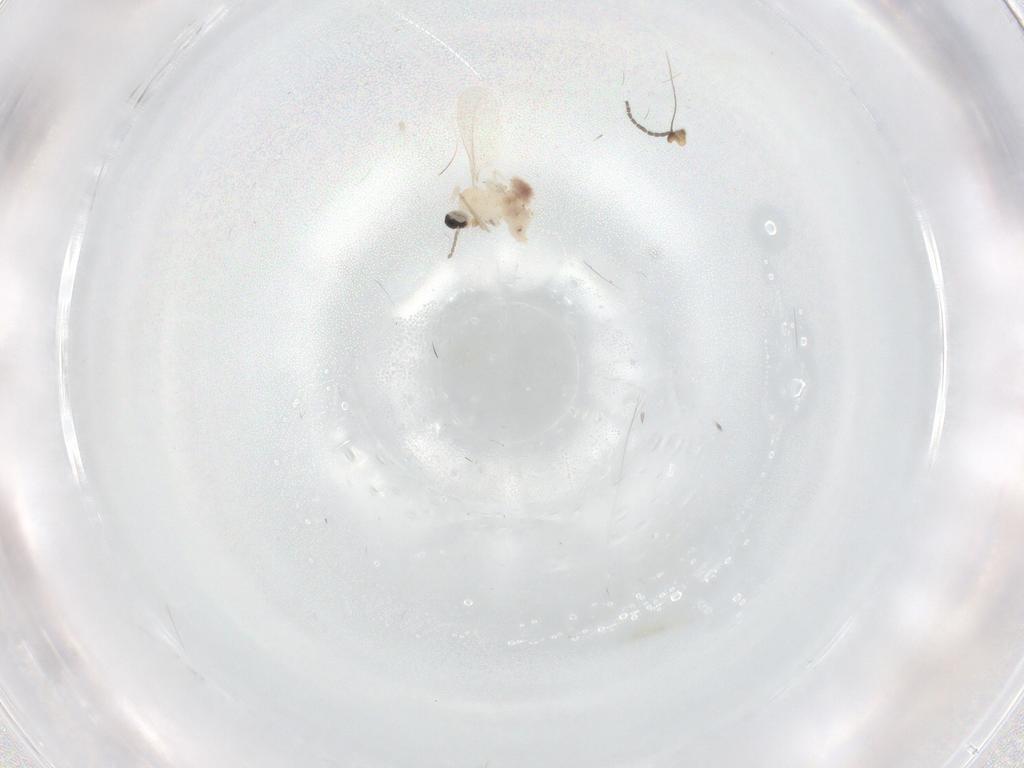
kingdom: Animalia
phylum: Arthropoda
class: Insecta
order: Diptera
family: Sciaridae
